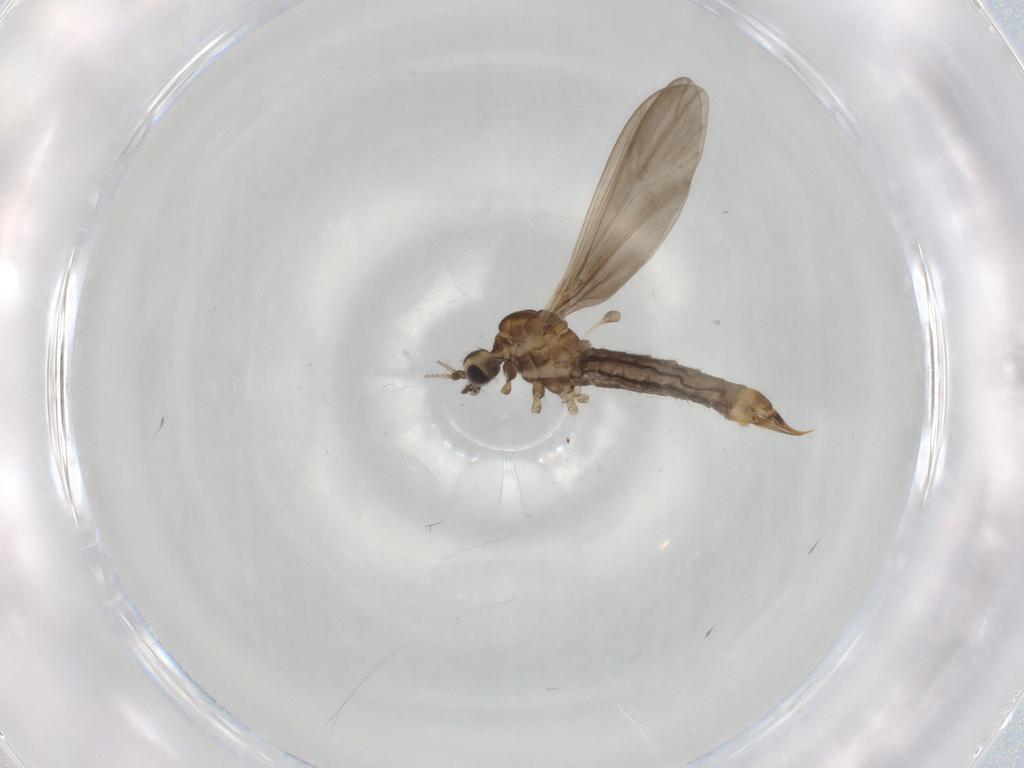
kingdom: Animalia
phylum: Arthropoda
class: Insecta
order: Diptera
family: Limoniidae
